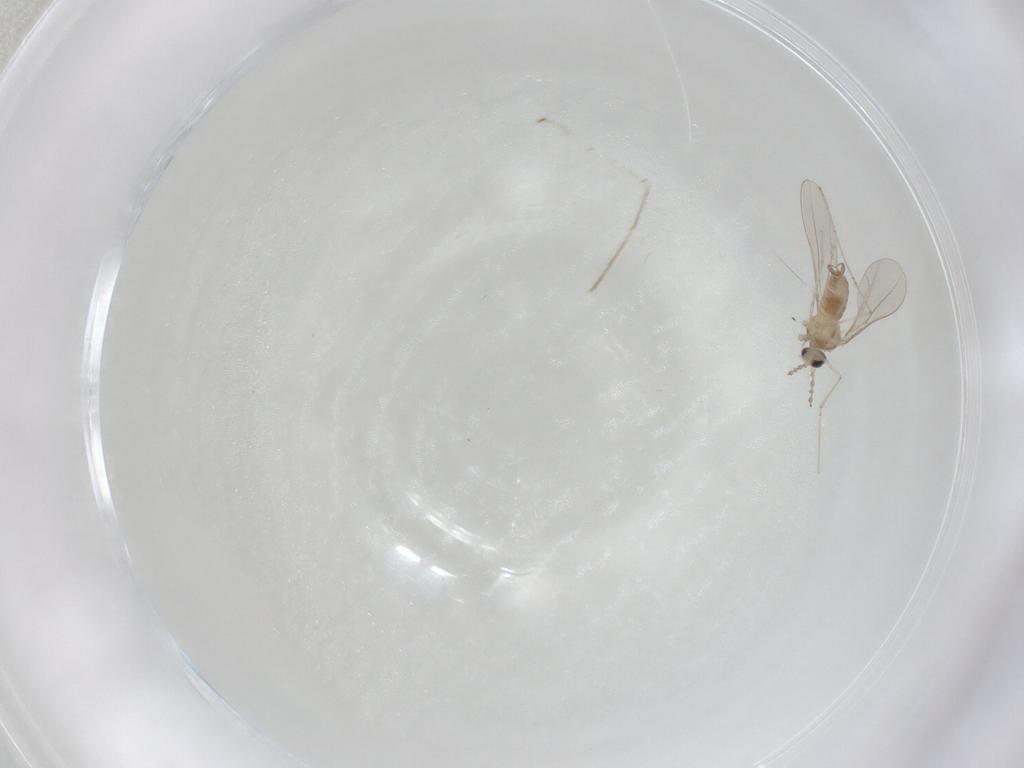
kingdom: Animalia
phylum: Arthropoda
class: Insecta
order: Diptera
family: Cecidomyiidae
